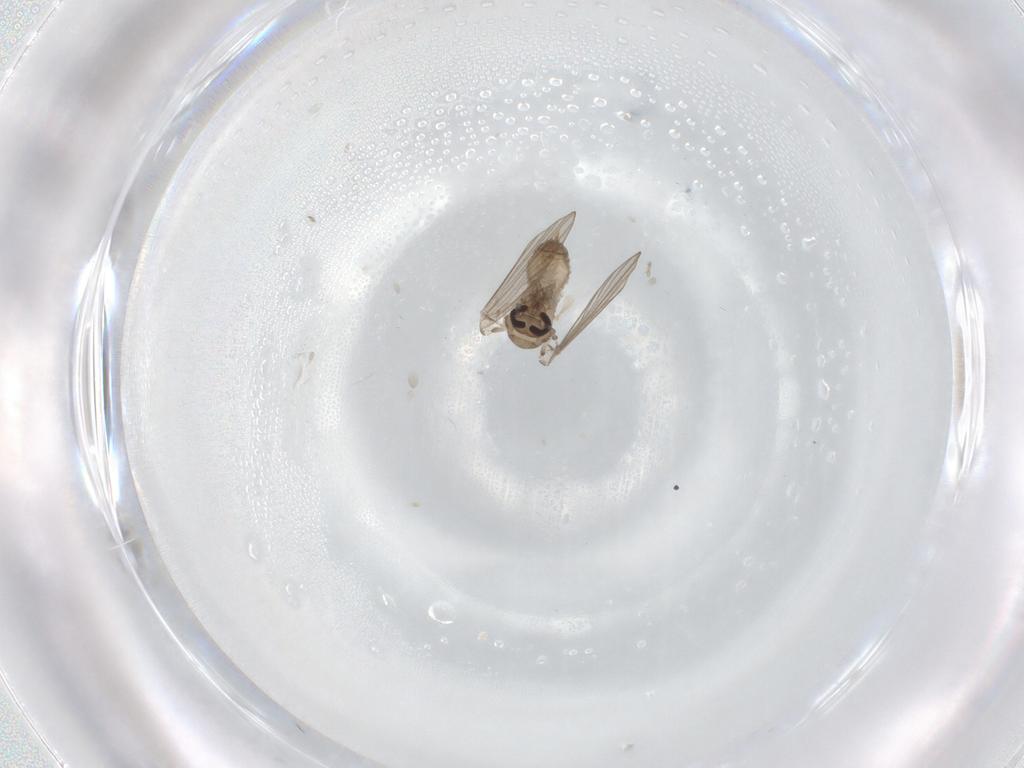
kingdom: Animalia
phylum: Arthropoda
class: Insecta
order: Diptera
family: Psychodidae
